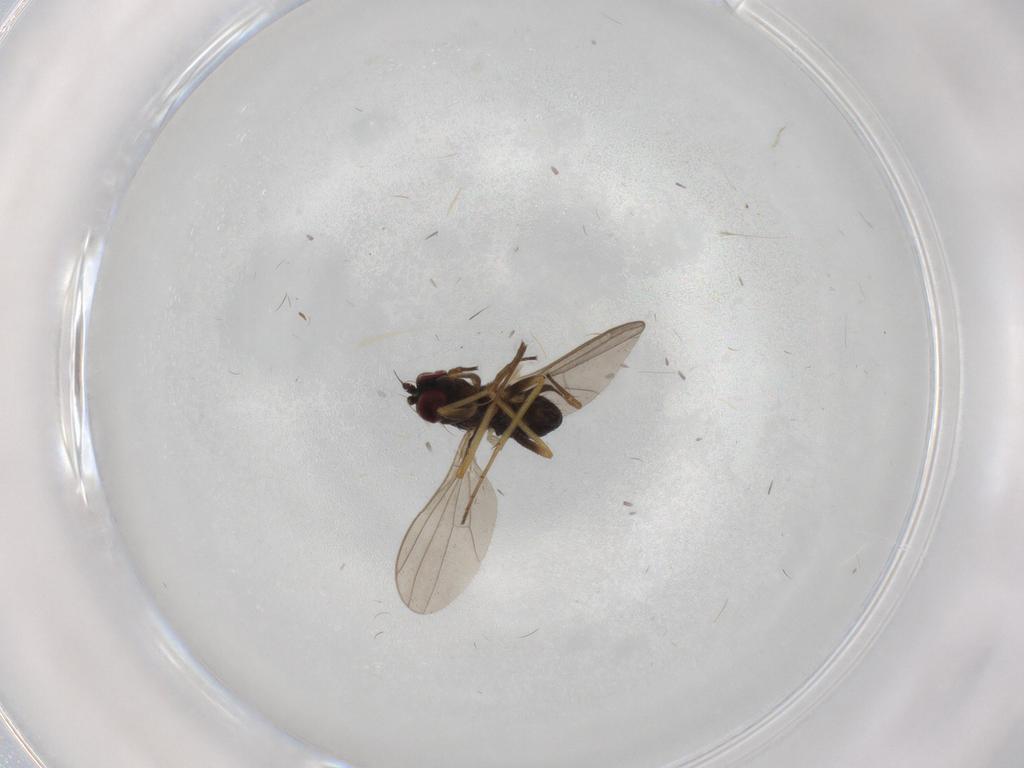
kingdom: Animalia
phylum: Arthropoda
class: Insecta
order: Diptera
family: Dolichopodidae
